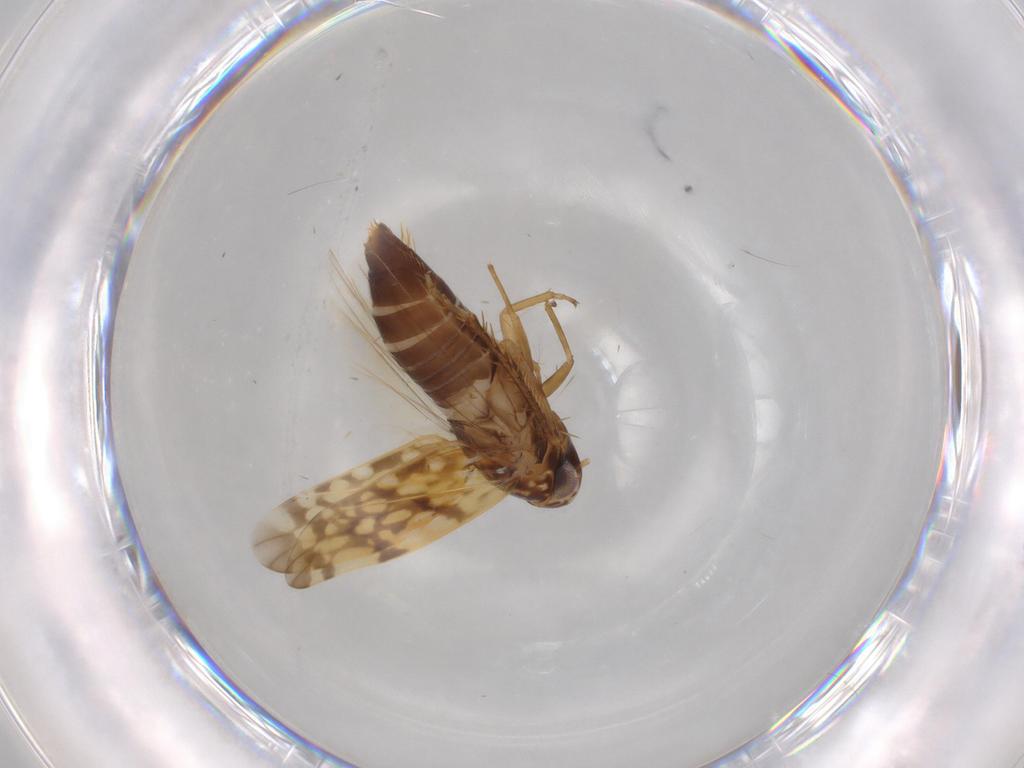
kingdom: Animalia
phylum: Arthropoda
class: Insecta
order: Hemiptera
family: Cicadellidae
